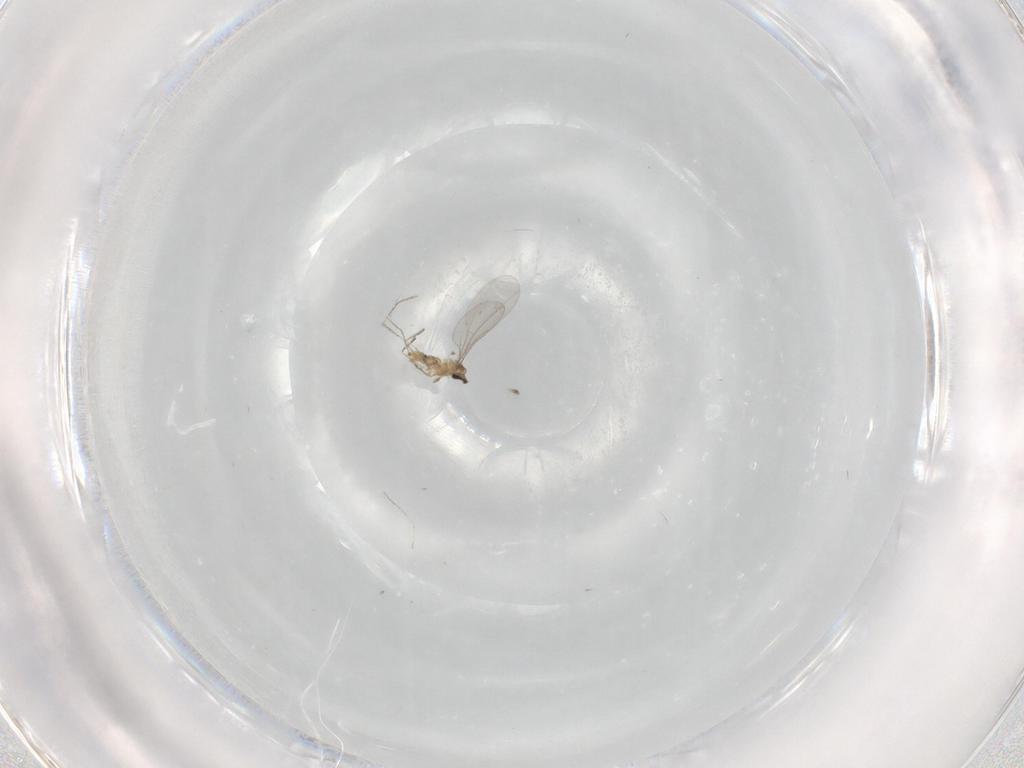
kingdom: Animalia
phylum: Arthropoda
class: Insecta
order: Diptera
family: Cecidomyiidae
